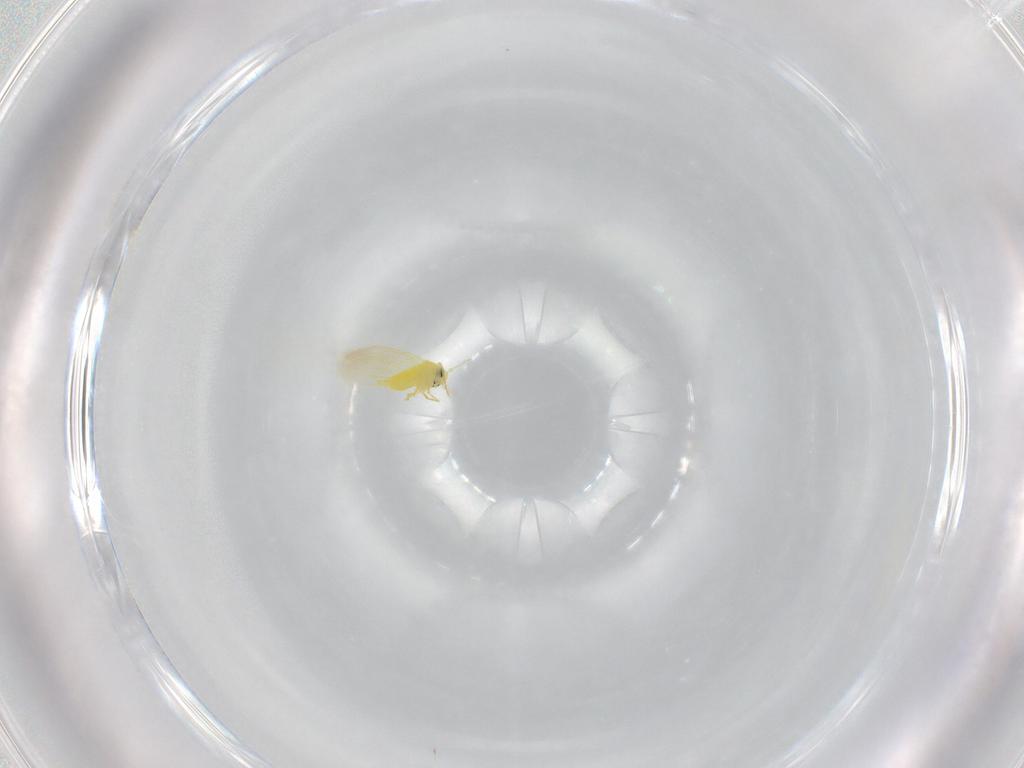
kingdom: Animalia
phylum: Arthropoda
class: Insecta
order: Hemiptera
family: Aleyrodidae
